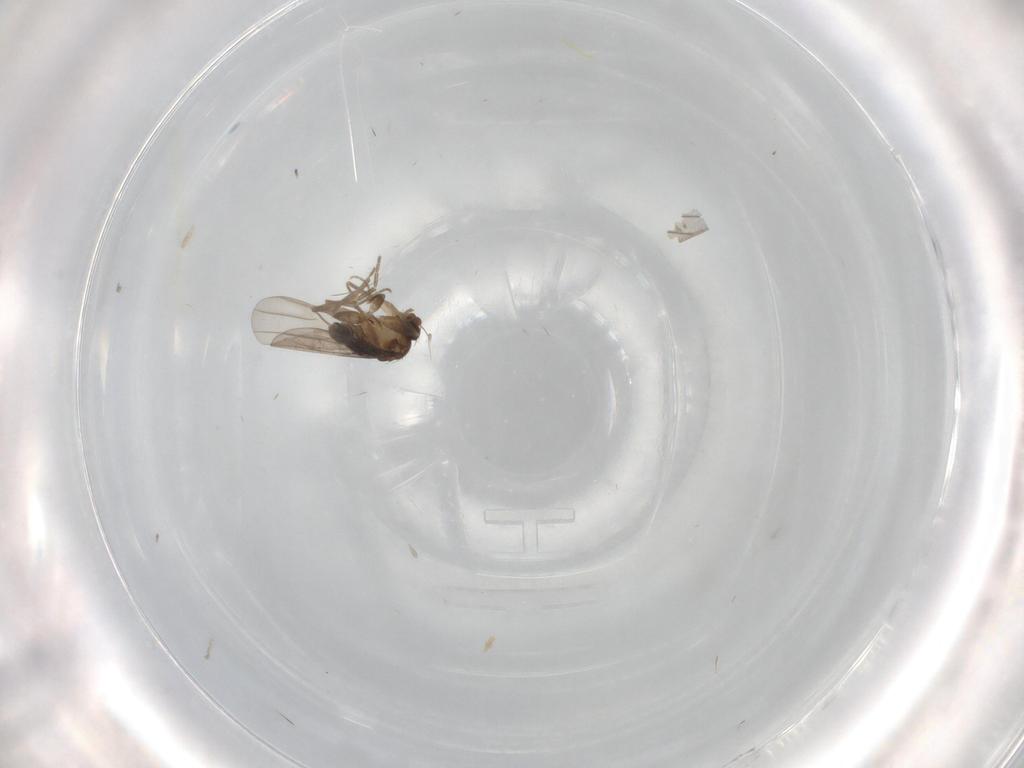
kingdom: Animalia
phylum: Arthropoda
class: Insecta
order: Diptera
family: Phoridae
